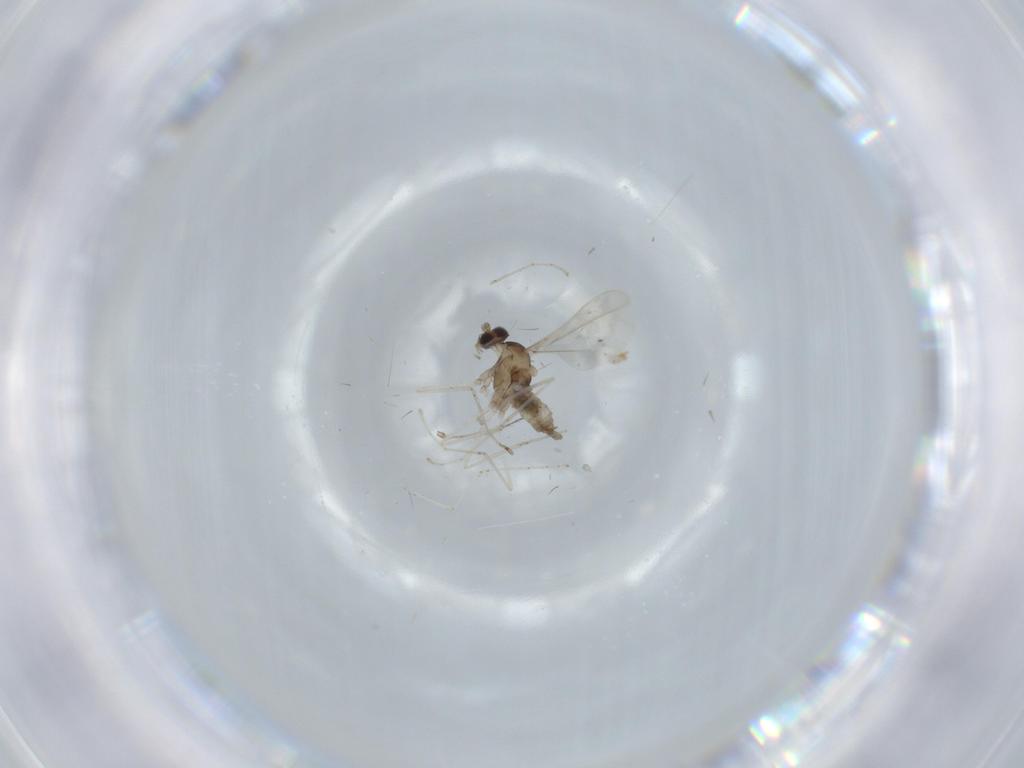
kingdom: Animalia
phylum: Arthropoda
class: Insecta
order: Diptera
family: Cecidomyiidae
